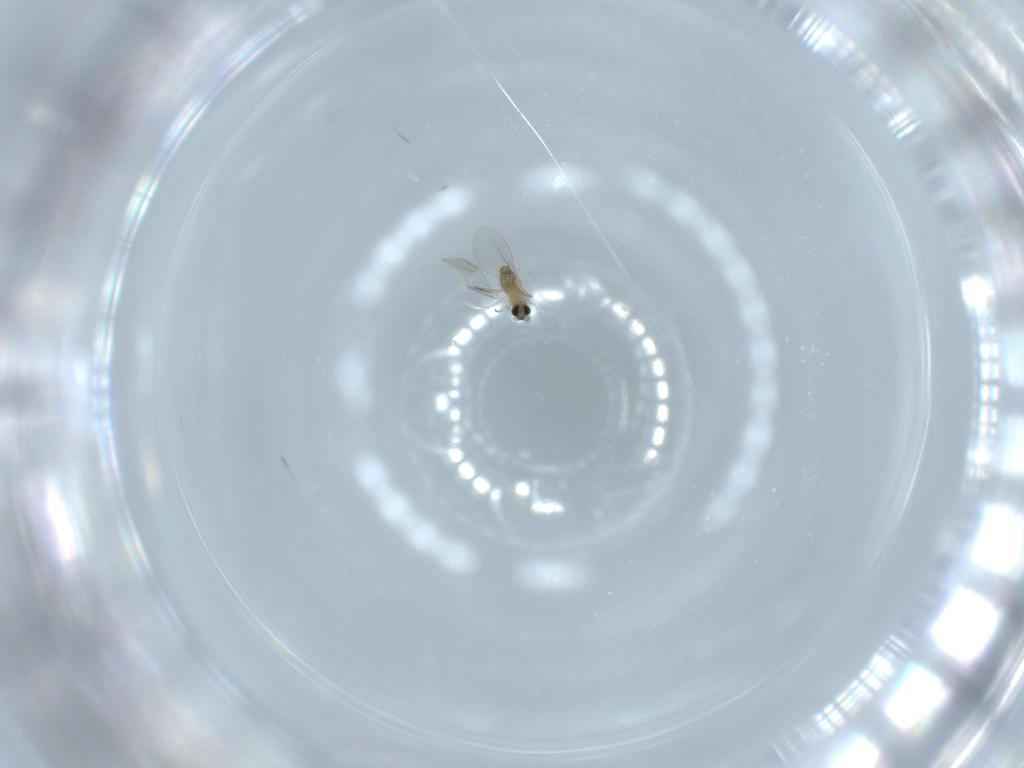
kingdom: Animalia
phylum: Arthropoda
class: Insecta
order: Diptera
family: Cecidomyiidae
